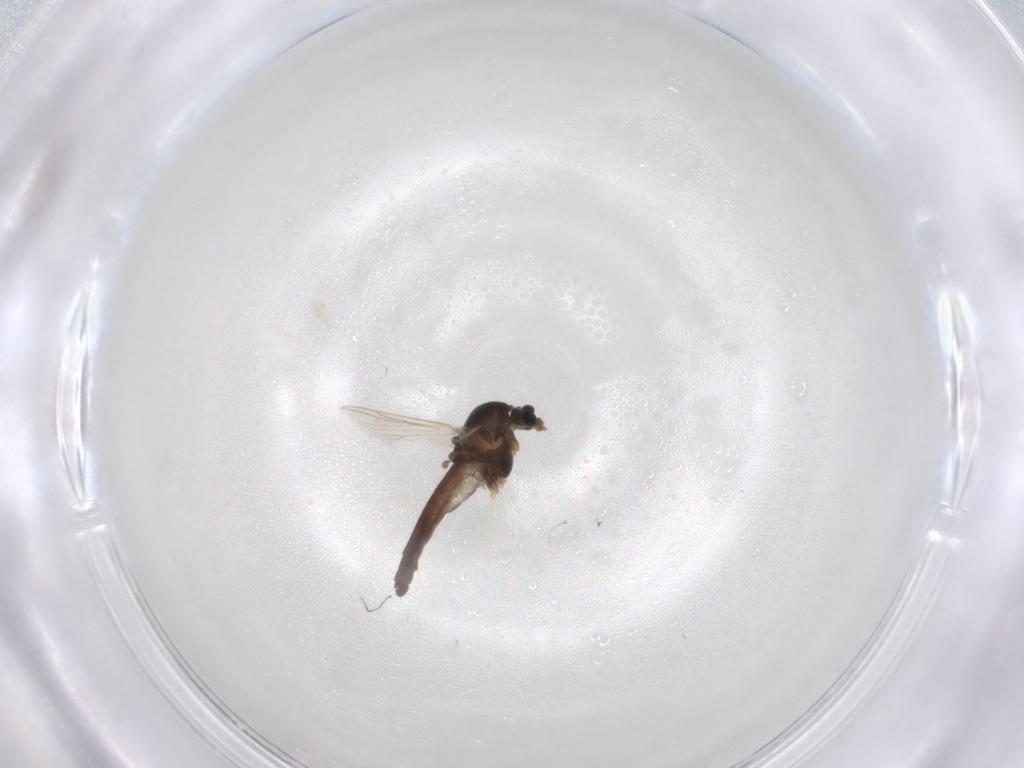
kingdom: Animalia
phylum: Arthropoda
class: Insecta
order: Diptera
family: Chironomidae
